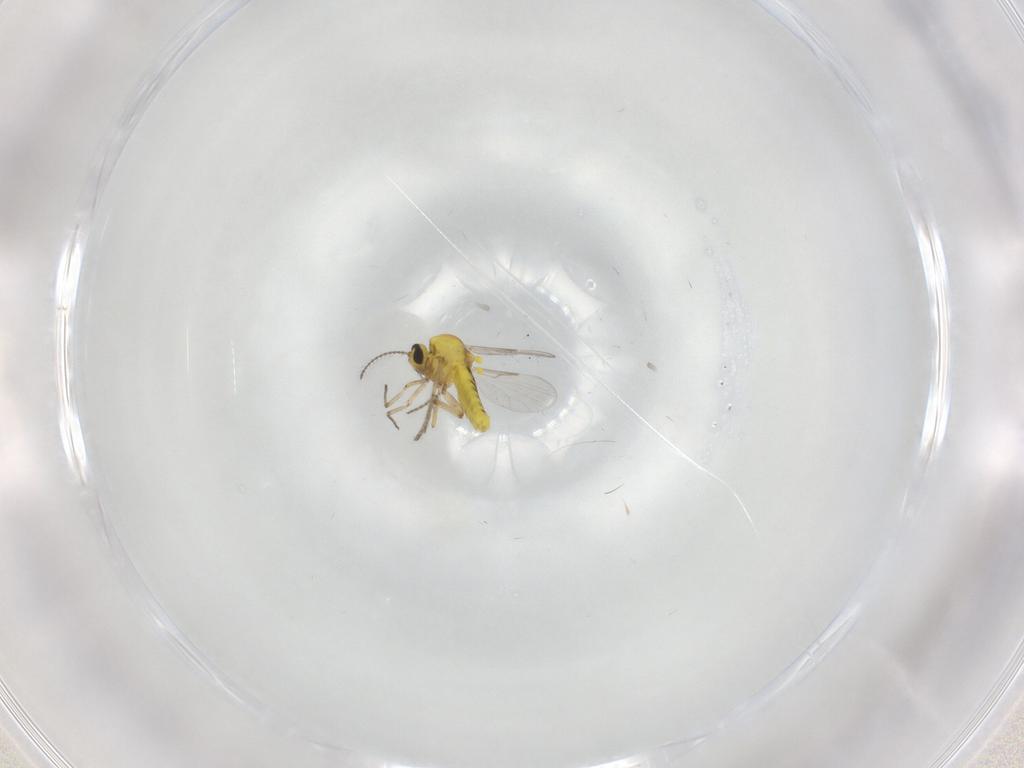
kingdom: Animalia
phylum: Arthropoda
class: Insecta
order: Diptera
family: Ceratopogonidae
